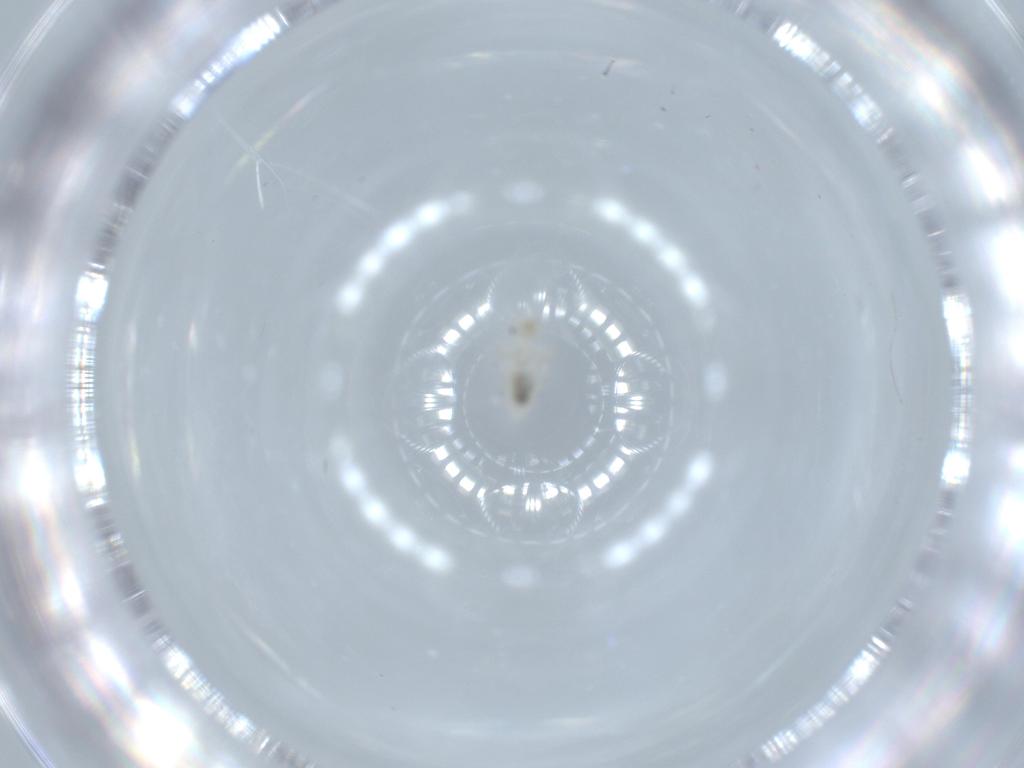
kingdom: Animalia
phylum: Arthropoda
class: Insecta
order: Psocodea
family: Caeciliusidae
